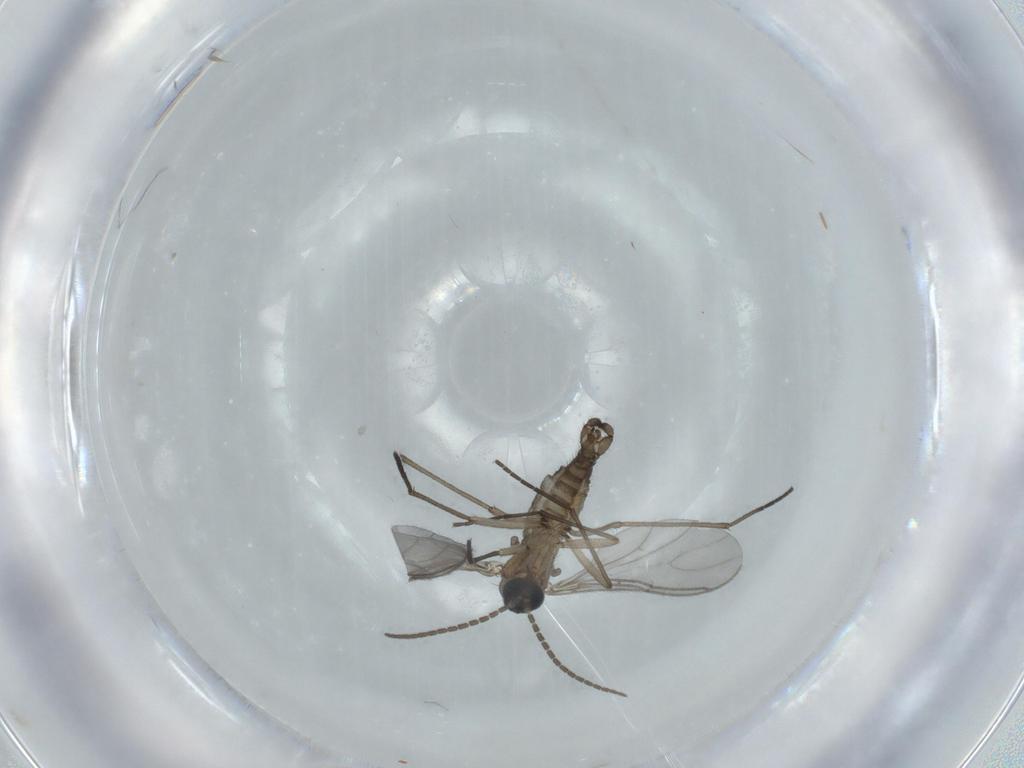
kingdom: Animalia
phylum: Arthropoda
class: Insecta
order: Diptera
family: Sciaridae
